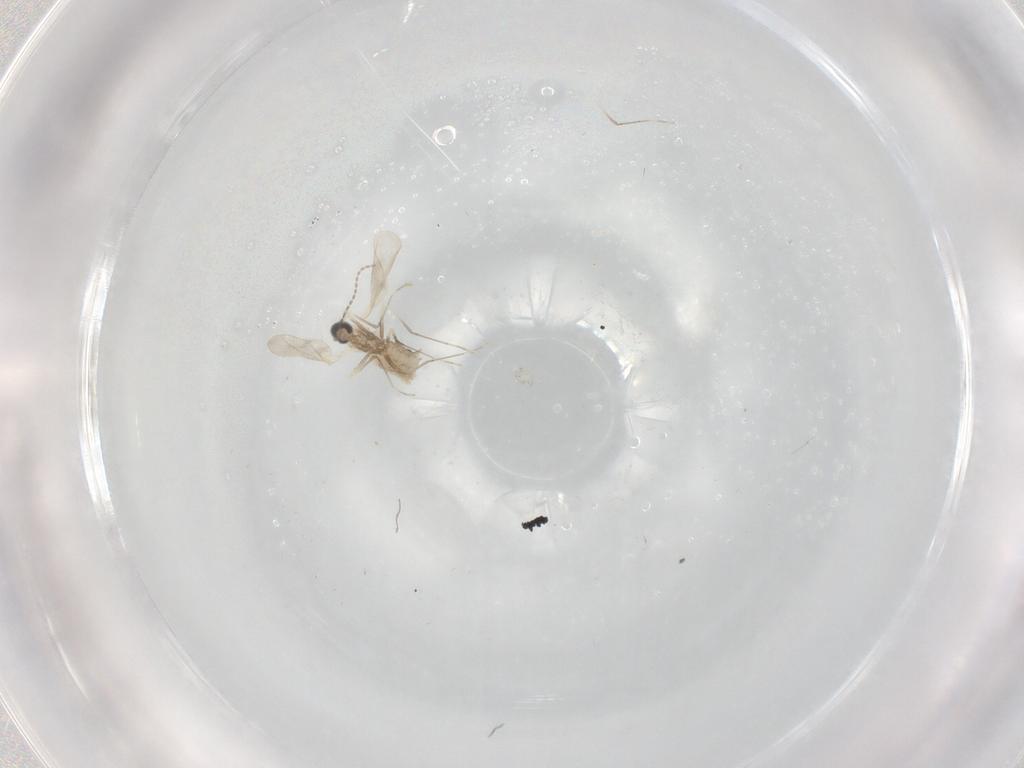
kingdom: Animalia
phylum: Arthropoda
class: Insecta
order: Diptera
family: Cecidomyiidae
